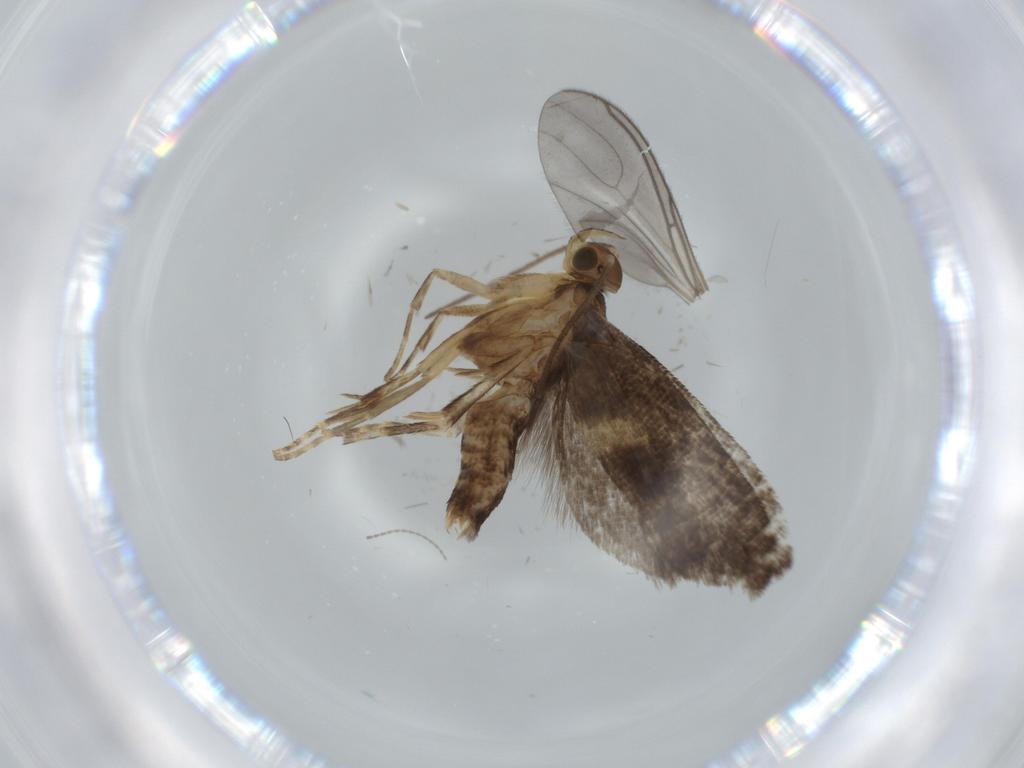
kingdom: Animalia
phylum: Arthropoda
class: Insecta
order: Lepidoptera
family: Lyonetiidae
